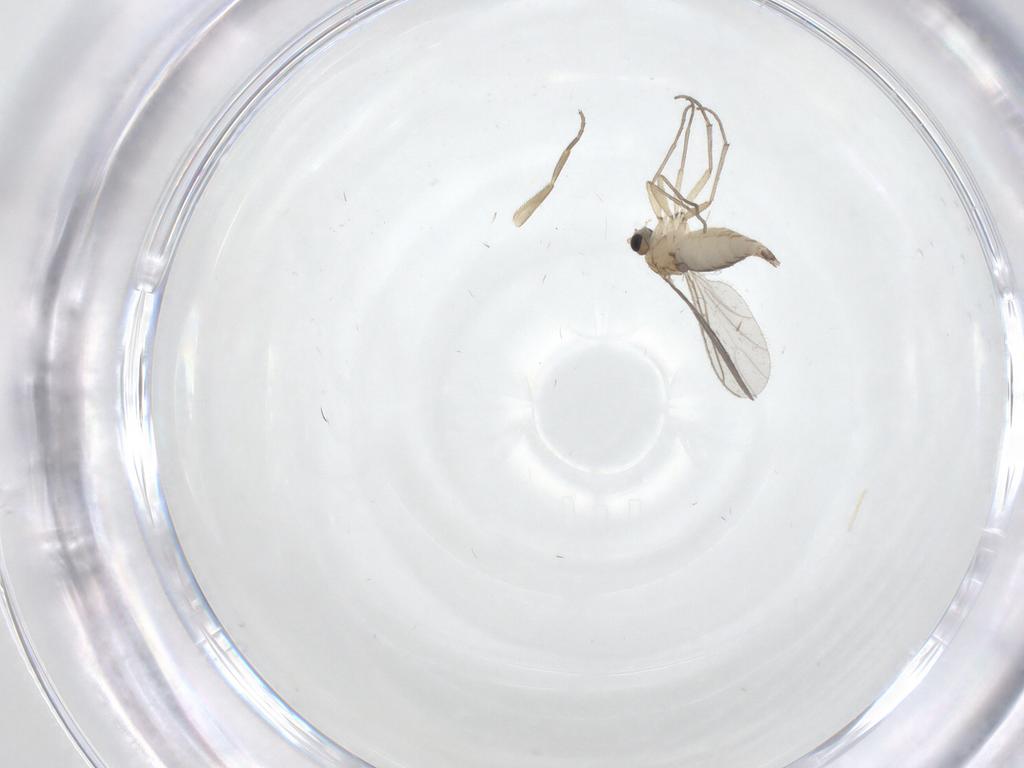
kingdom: Animalia
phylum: Arthropoda
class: Insecta
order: Diptera
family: Sciaridae
